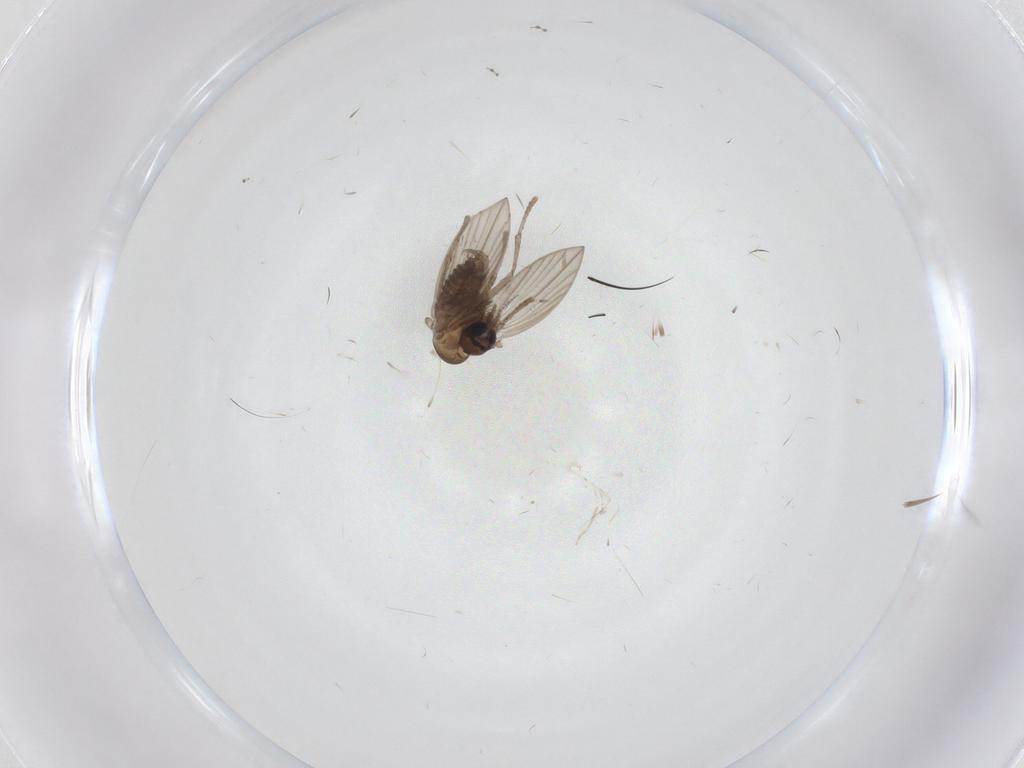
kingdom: Animalia
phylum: Arthropoda
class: Insecta
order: Diptera
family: Psychodidae
